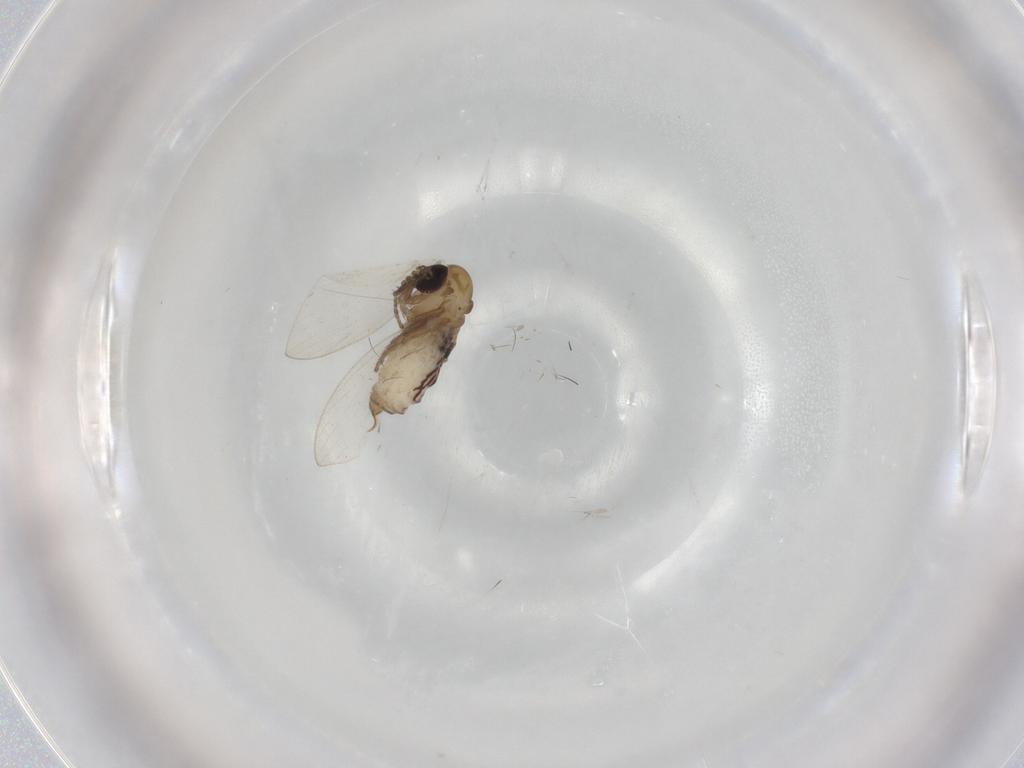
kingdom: Animalia
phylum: Arthropoda
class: Insecta
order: Diptera
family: Psychodidae
